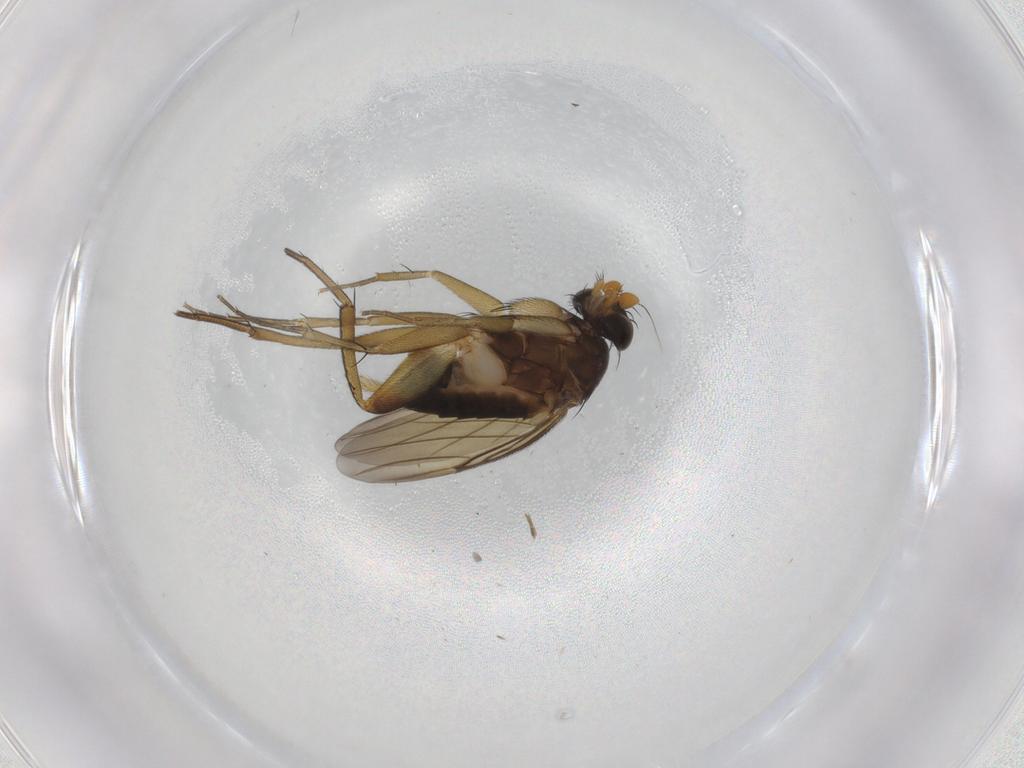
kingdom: Animalia
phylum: Arthropoda
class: Insecta
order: Diptera
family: Phoridae
